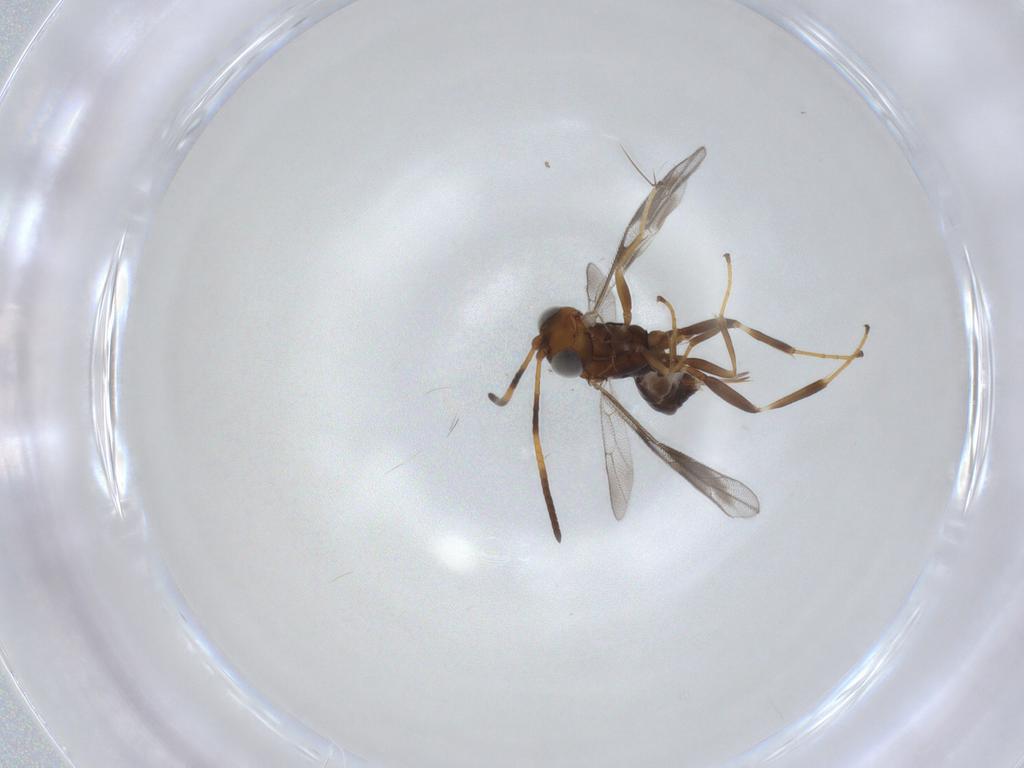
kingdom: Animalia
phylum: Arthropoda
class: Insecta
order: Hymenoptera
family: Ichneumonidae
